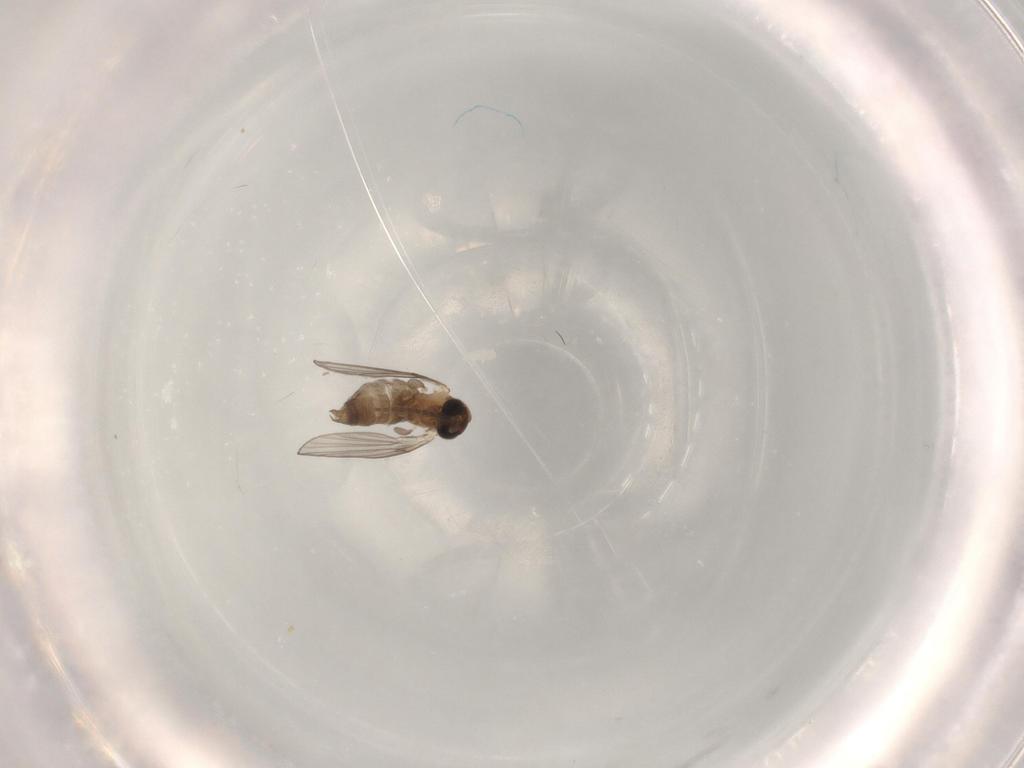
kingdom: Animalia
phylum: Arthropoda
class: Insecta
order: Diptera
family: Psychodidae
